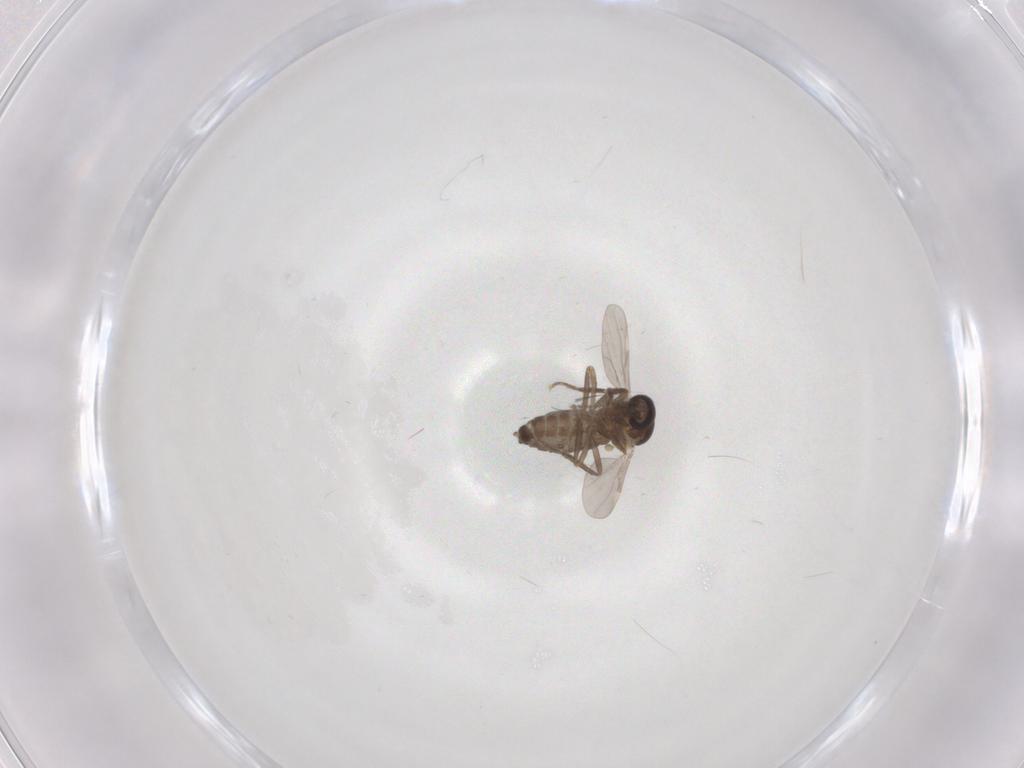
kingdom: Animalia
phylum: Arthropoda
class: Insecta
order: Diptera
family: Ceratopogonidae
